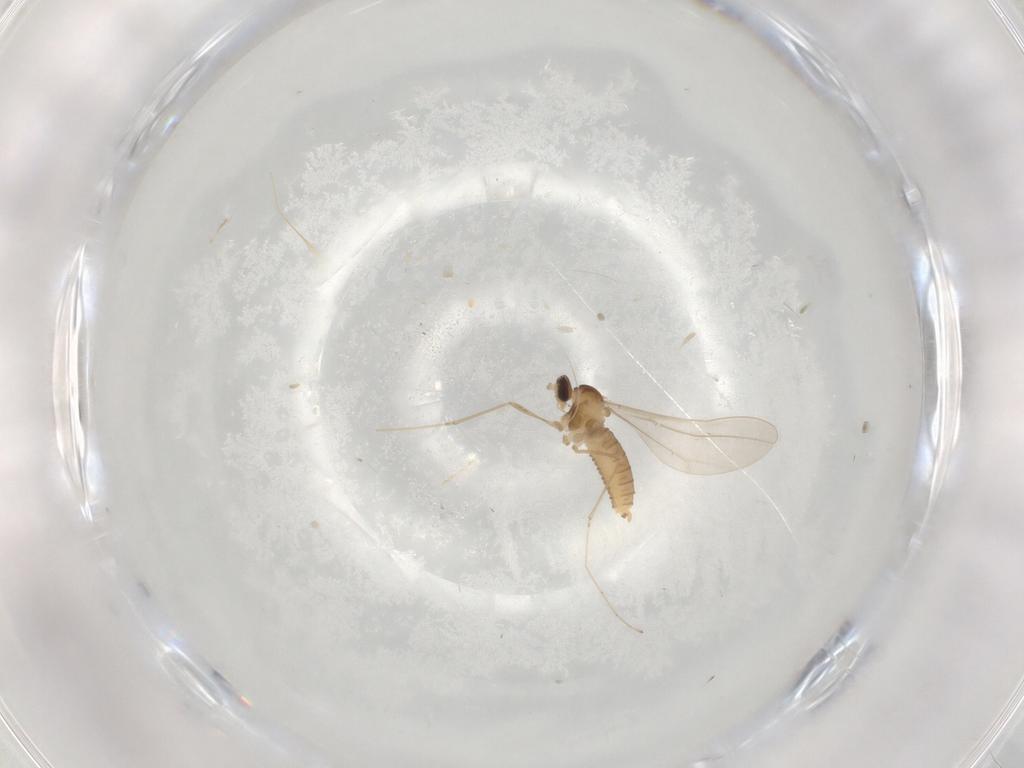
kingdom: Animalia
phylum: Arthropoda
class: Insecta
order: Diptera
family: Cecidomyiidae
